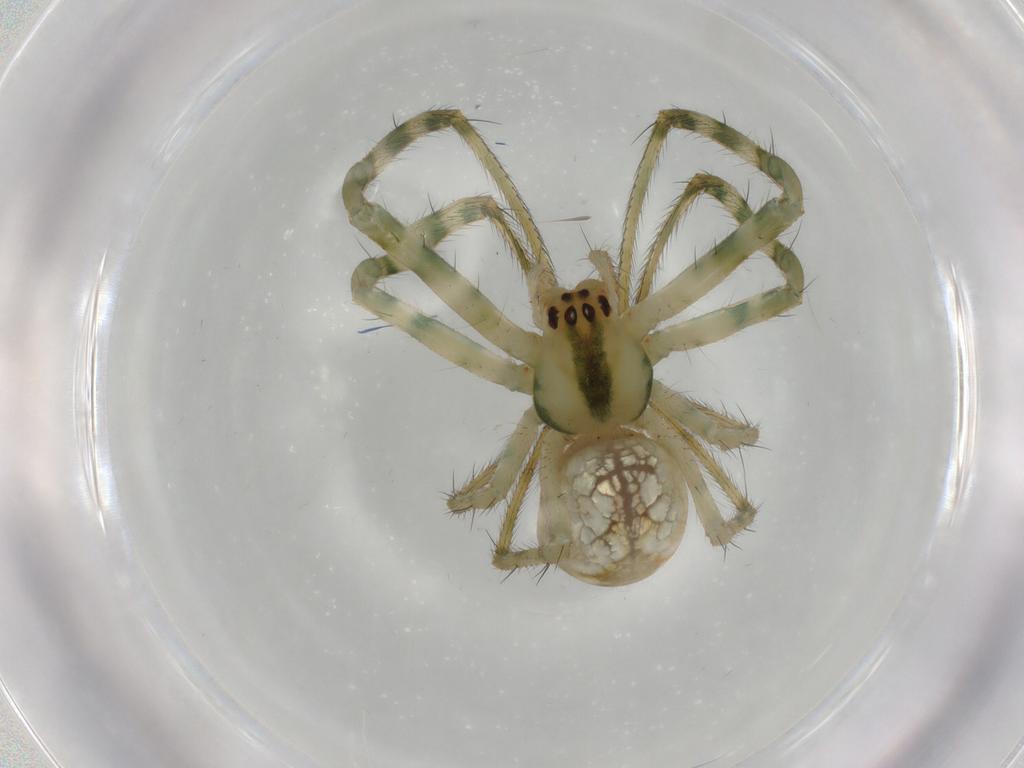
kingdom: Animalia
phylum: Arthropoda
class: Arachnida
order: Araneae
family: Tetragnathidae
